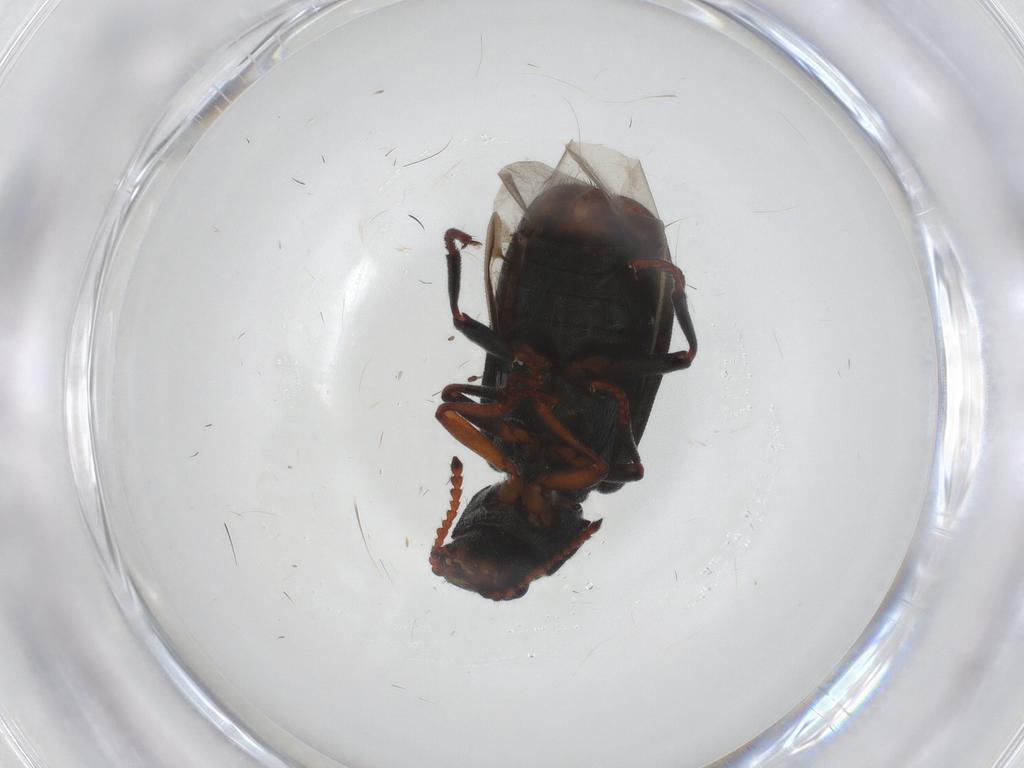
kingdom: Animalia
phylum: Arthropoda
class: Insecta
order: Coleoptera
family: Melyridae
